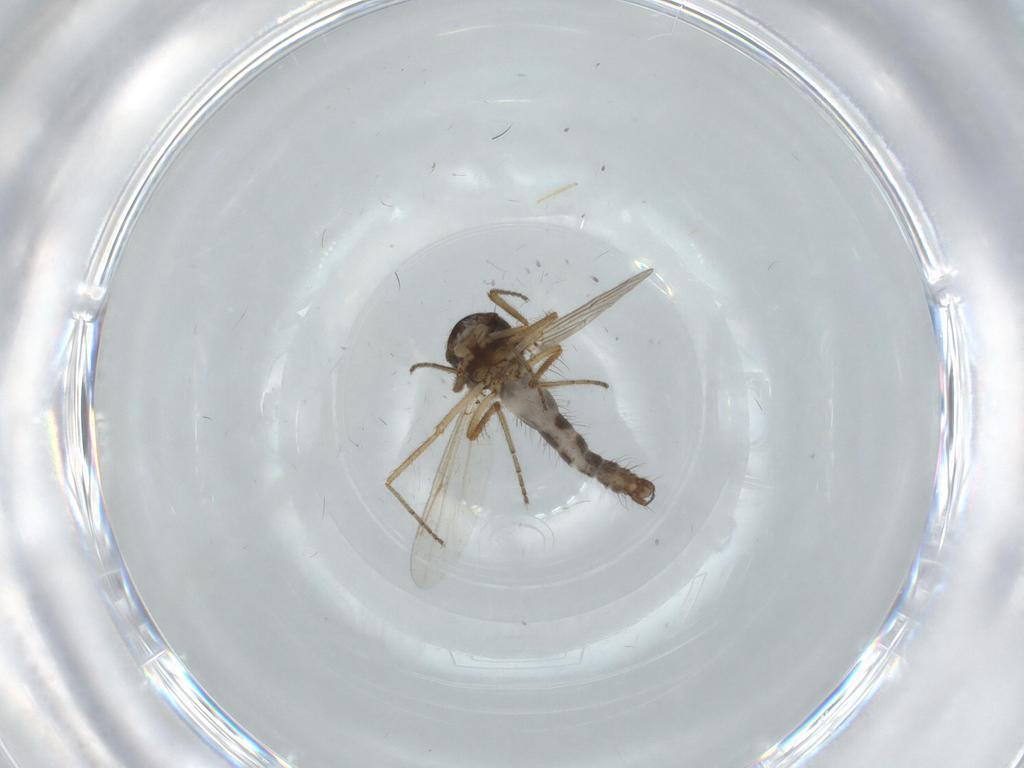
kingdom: Animalia
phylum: Arthropoda
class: Insecta
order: Diptera
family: Ceratopogonidae
